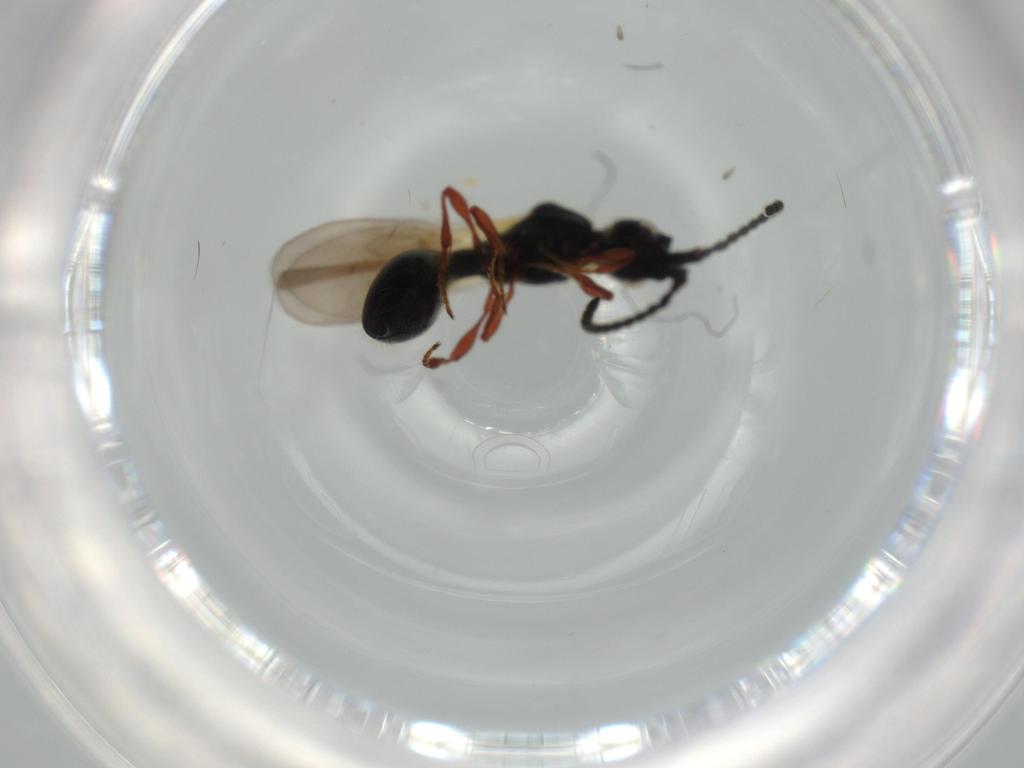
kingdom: Animalia
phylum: Arthropoda
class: Insecta
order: Hymenoptera
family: Diapriidae
